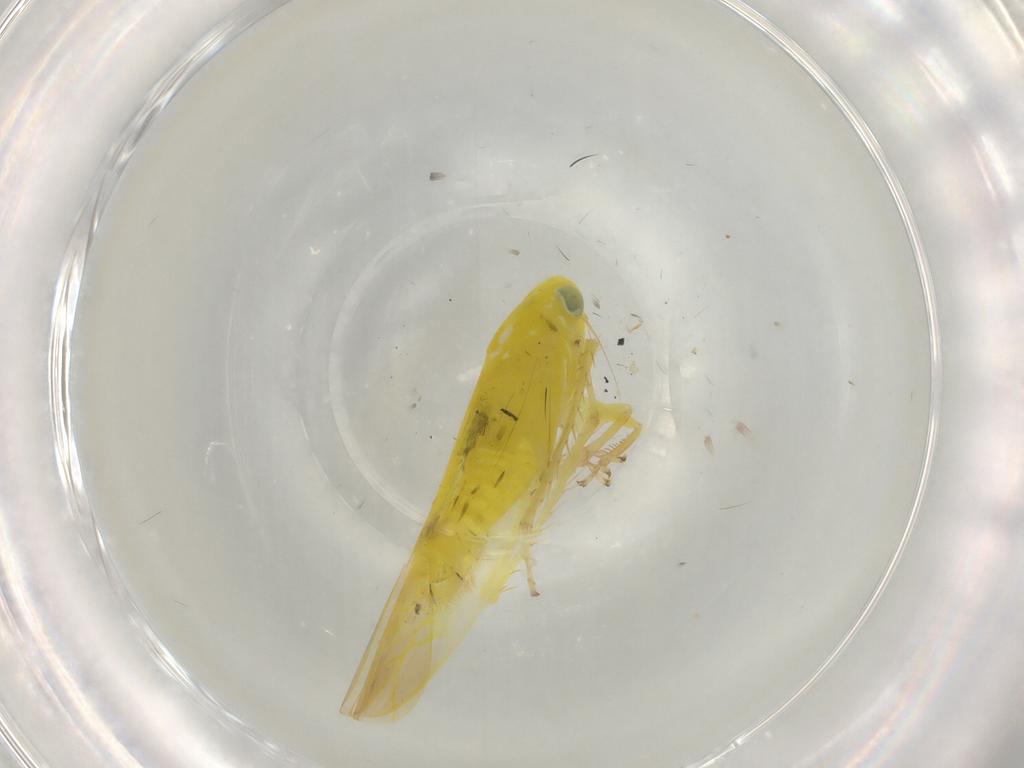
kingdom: Animalia
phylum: Arthropoda
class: Insecta
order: Hemiptera
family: Cicadellidae
